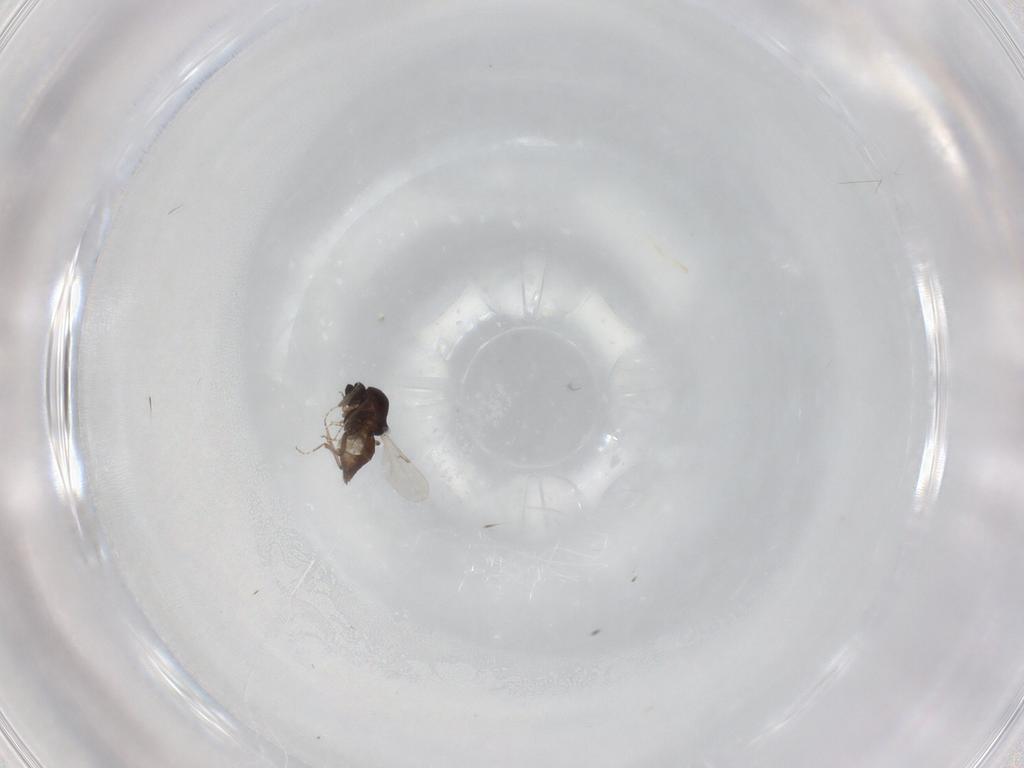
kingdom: Animalia
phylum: Arthropoda
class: Insecta
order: Diptera
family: Ceratopogonidae
